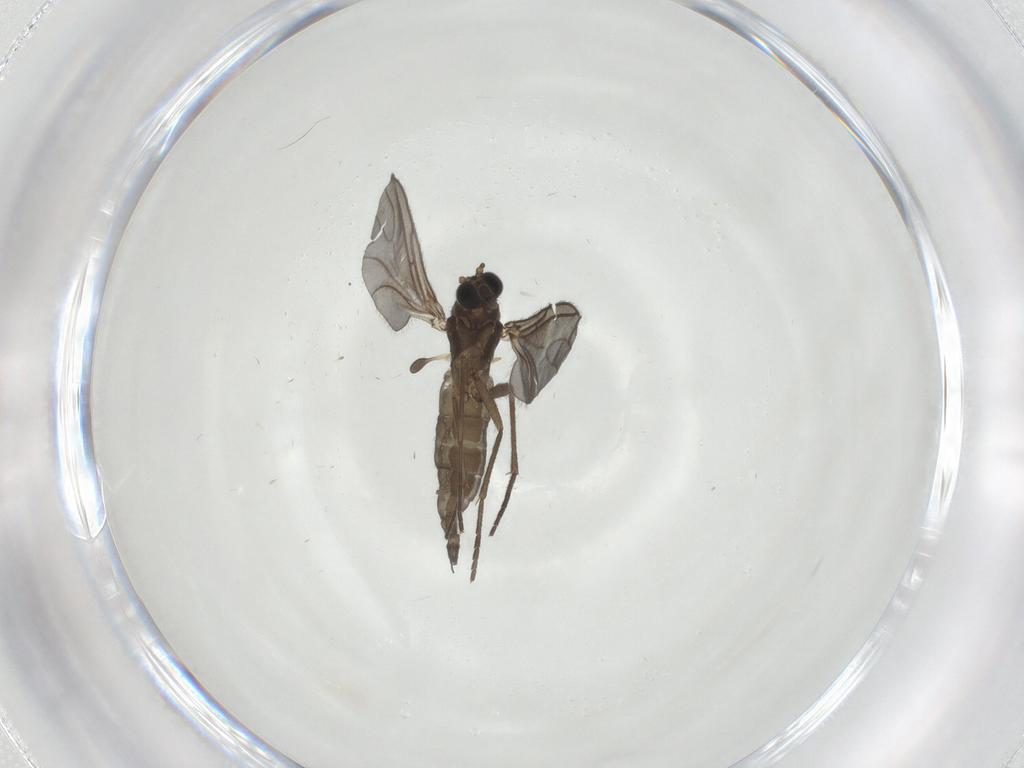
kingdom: Animalia
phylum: Arthropoda
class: Insecta
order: Diptera
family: Sciaridae
